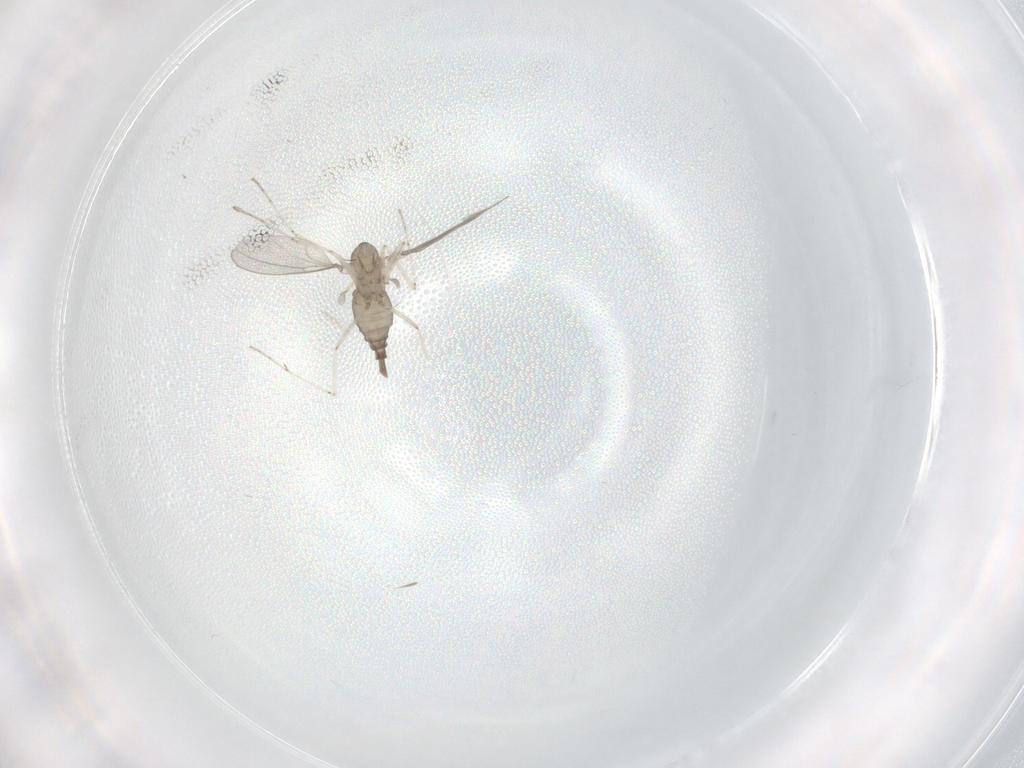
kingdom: Animalia
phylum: Arthropoda
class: Insecta
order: Diptera
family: Cecidomyiidae
